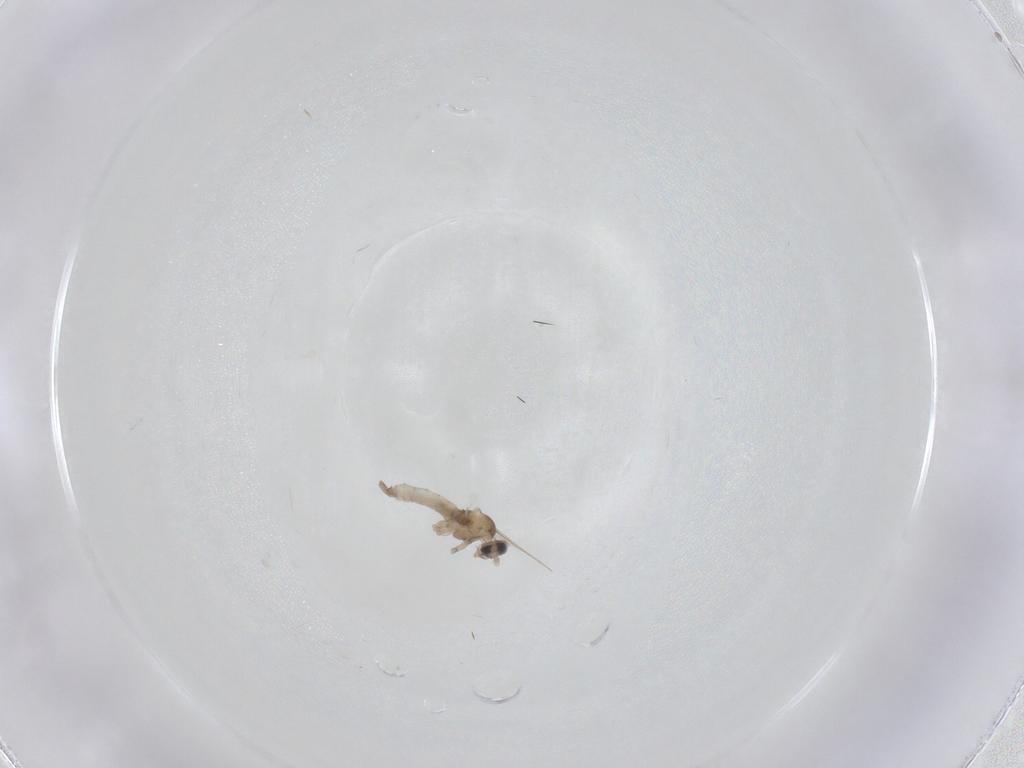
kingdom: Animalia
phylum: Arthropoda
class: Insecta
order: Diptera
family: Cecidomyiidae
